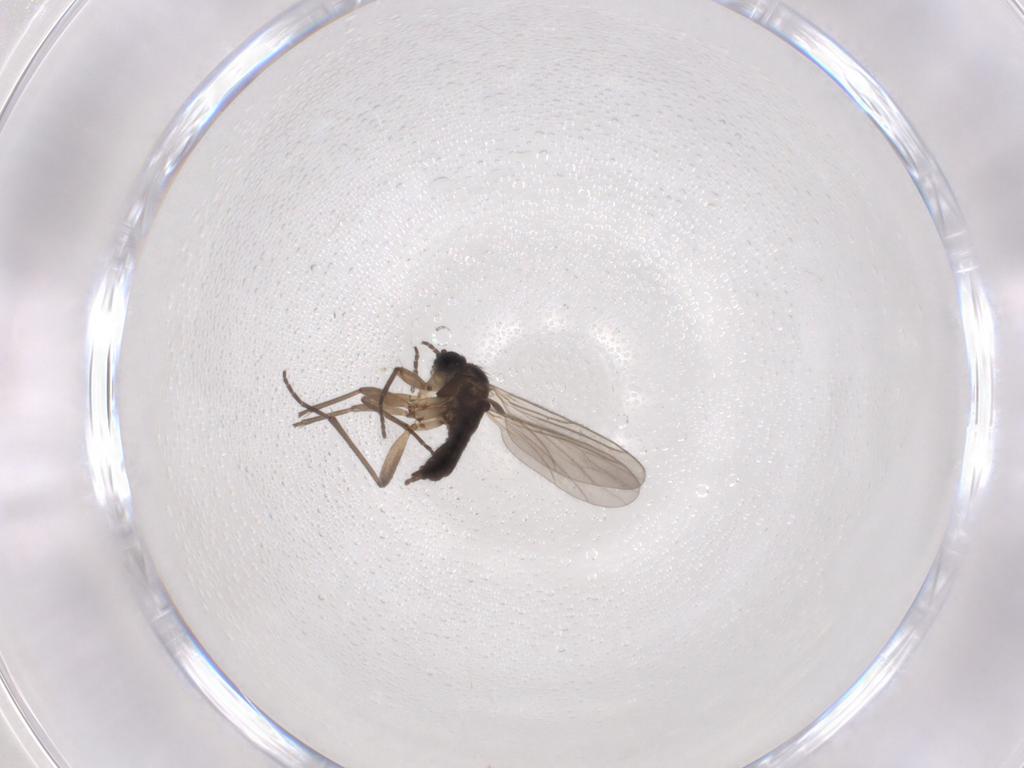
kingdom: Animalia
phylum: Arthropoda
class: Insecta
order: Diptera
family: Sciaridae
